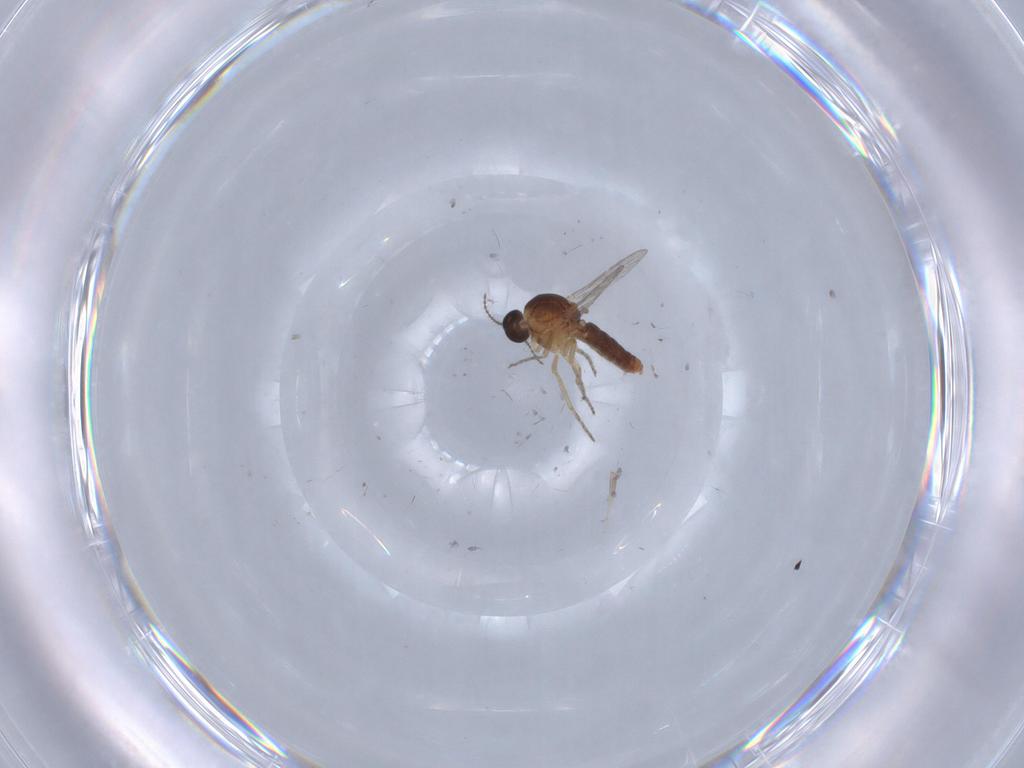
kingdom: Animalia
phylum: Arthropoda
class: Insecta
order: Diptera
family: Ceratopogonidae
